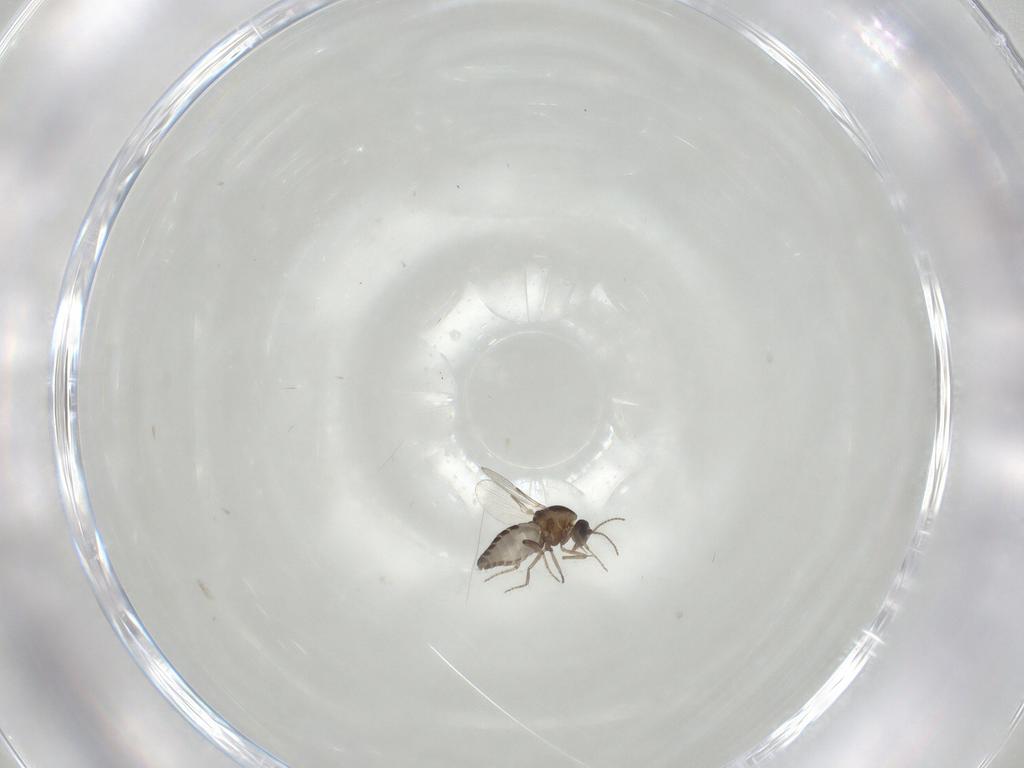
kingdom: Animalia
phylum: Arthropoda
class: Insecta
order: Diptera
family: Ceratopogonidae
